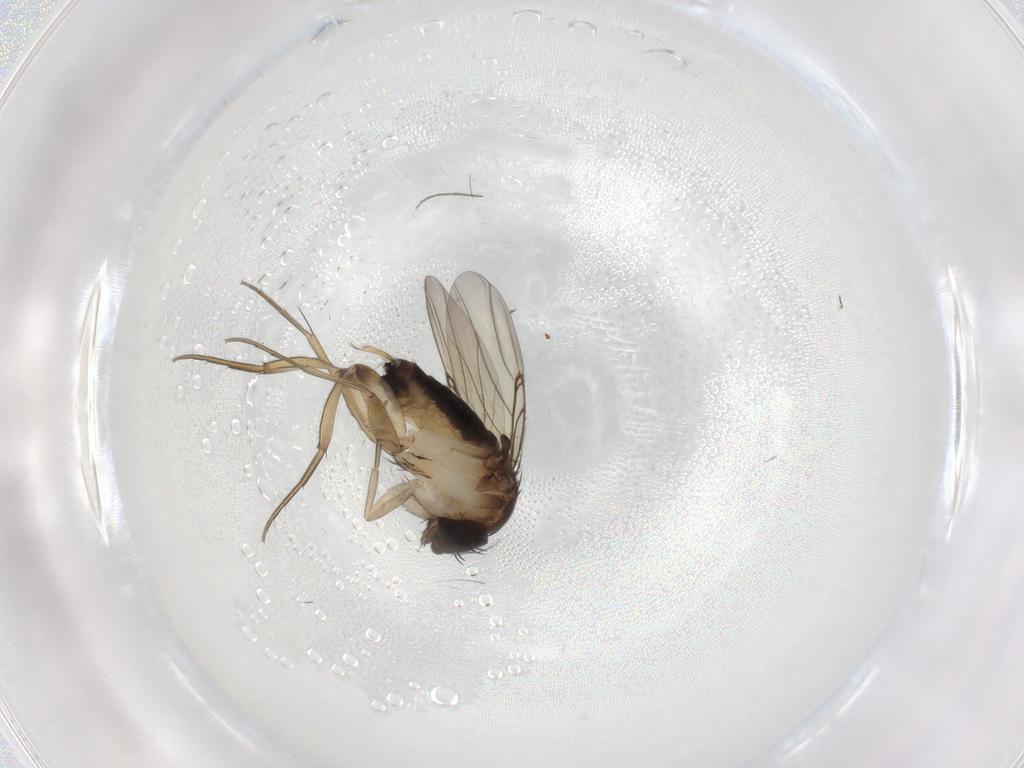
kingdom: Animalia
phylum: Arthropoda
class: Insecta
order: Diptera
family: Phoridae
